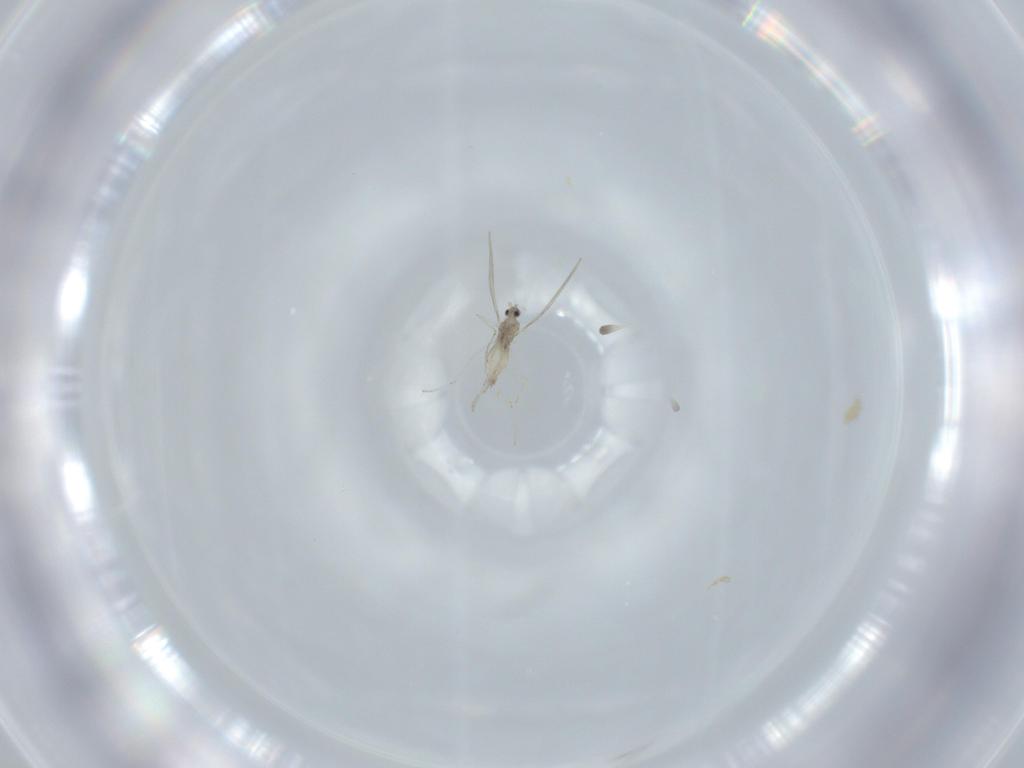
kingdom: Animalia
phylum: Arthropoda
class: Insecta
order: Diptera
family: Cecidomyiidae
